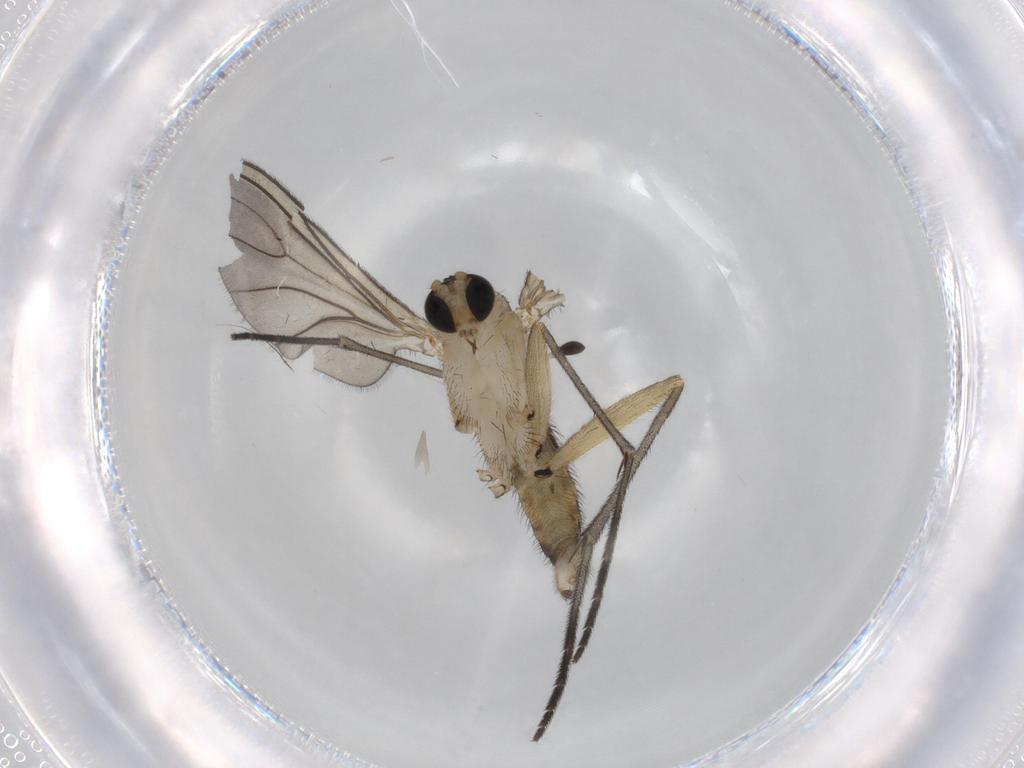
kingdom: Animalia
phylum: Arthropoda
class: Insecta
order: Diptera
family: Sciaridae
